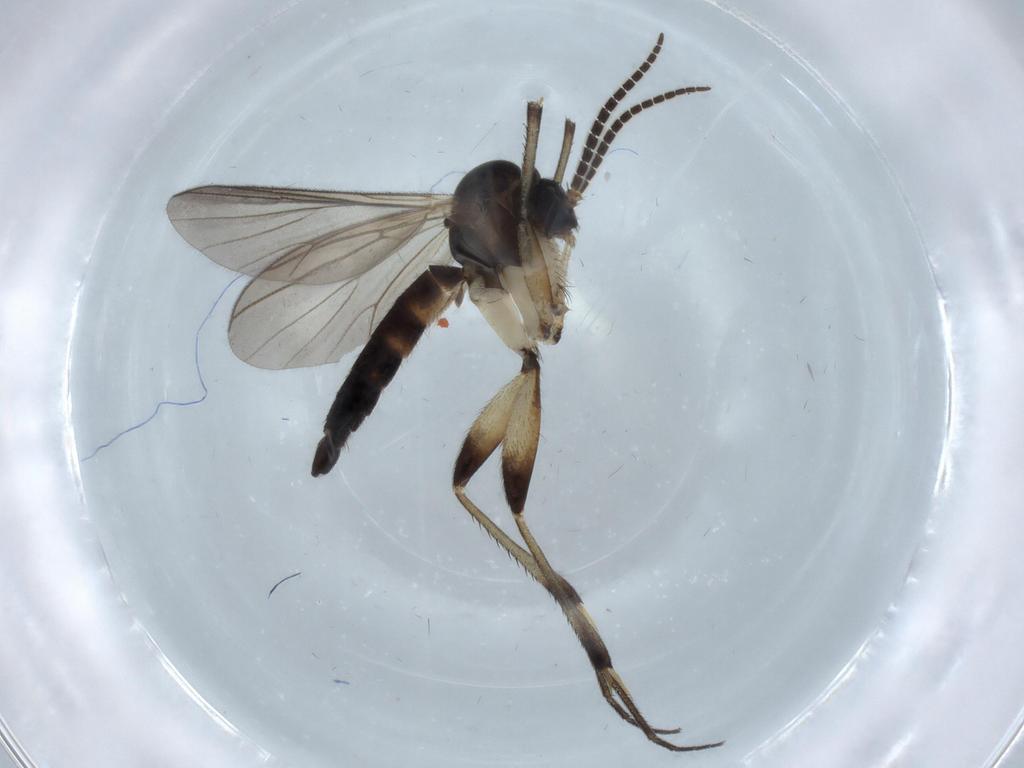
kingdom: Animalia
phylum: Arthropoda
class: Insecta
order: Diptera
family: Mycetophilidae
